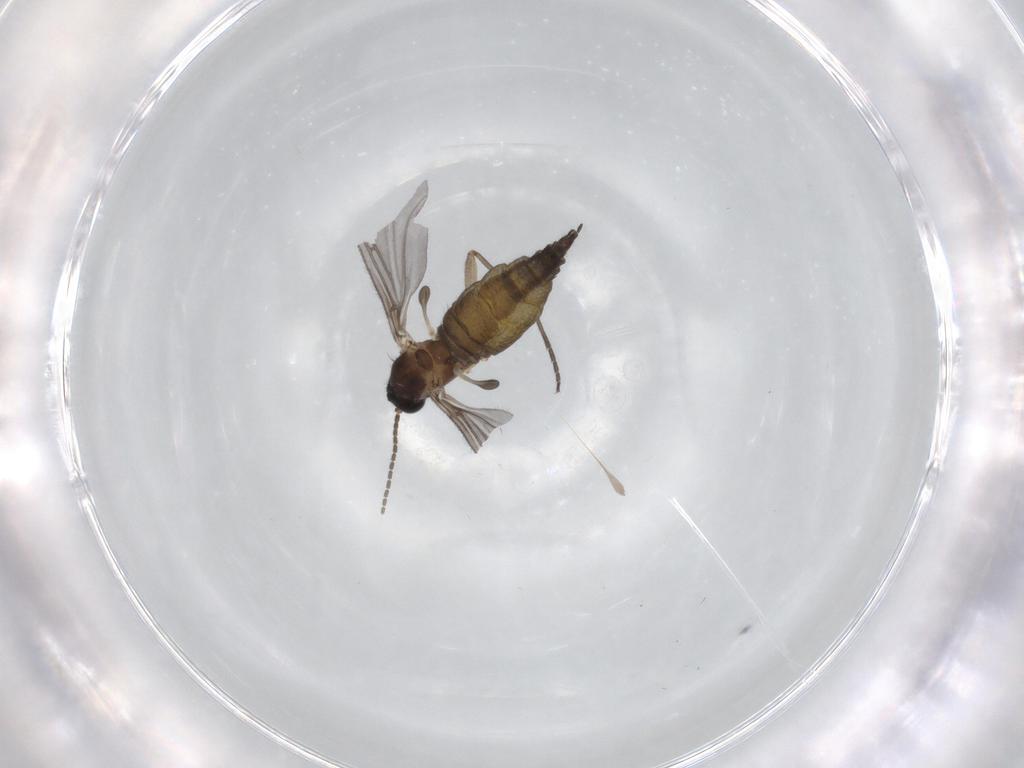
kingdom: Animalia
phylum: Arthropoda
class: Insecta
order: Diptera
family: Sciaridae
